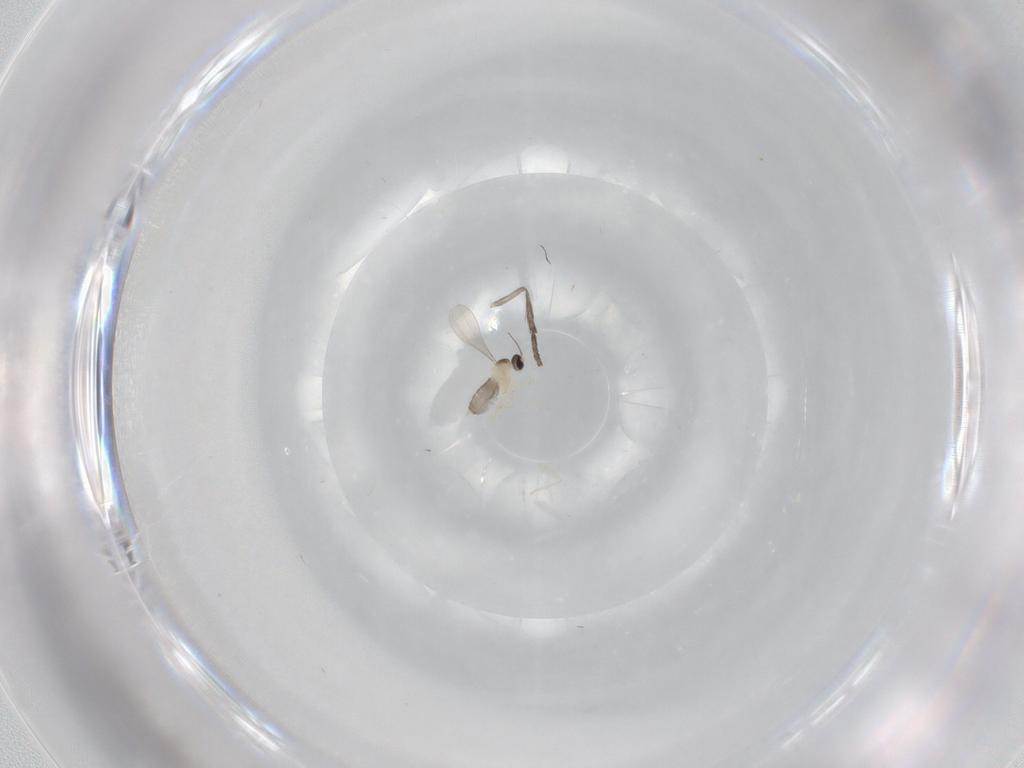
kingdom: Animalia
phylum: Arthropoda
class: Insecta
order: Diptera
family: Cecidomyiidae
